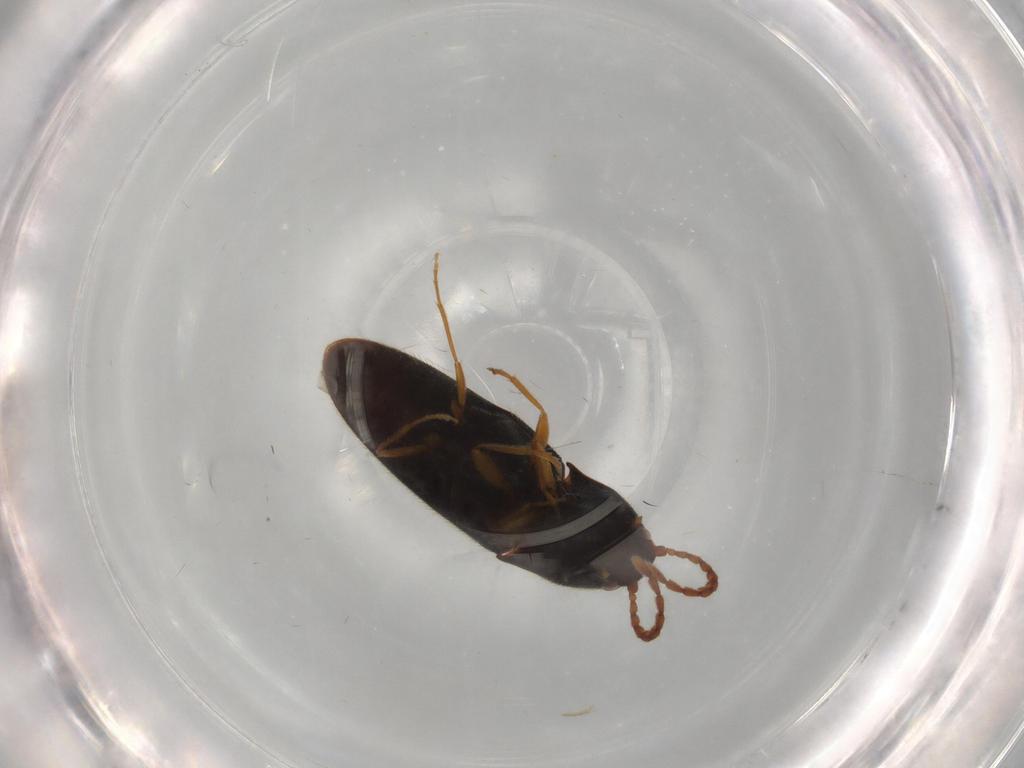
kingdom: Animalia
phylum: Arthropoda
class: Insecta
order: Coleoptera
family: Elateridae
